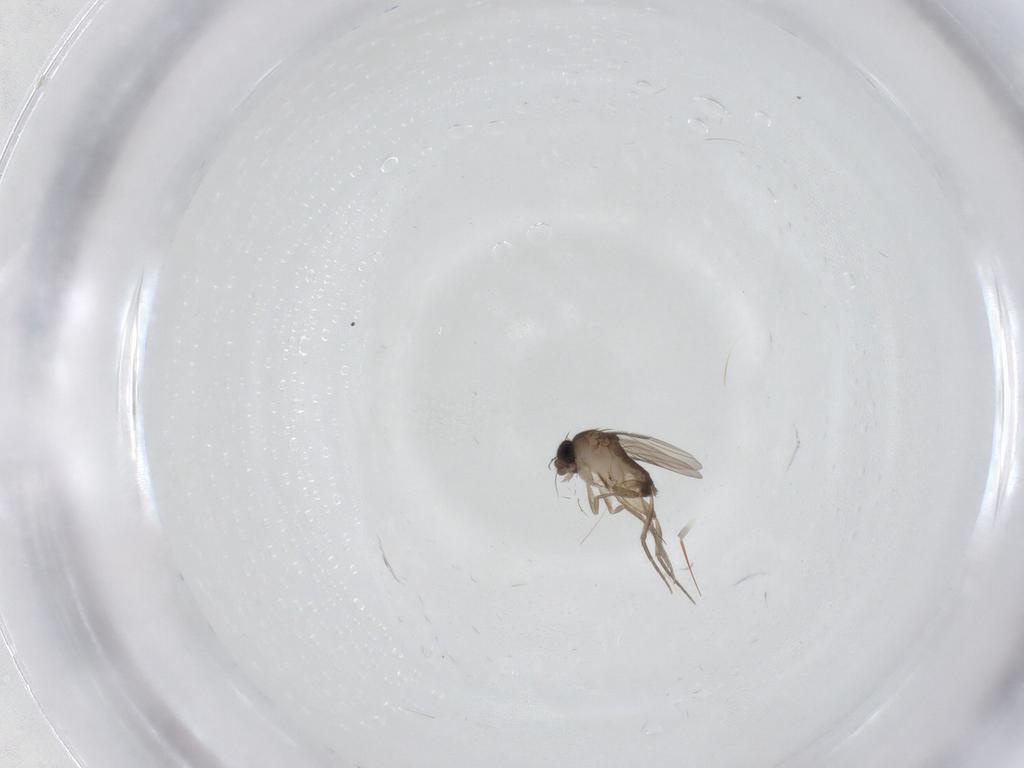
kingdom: Animalia
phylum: Arthropoda
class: Insecta
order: Diptera
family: Phoridae
